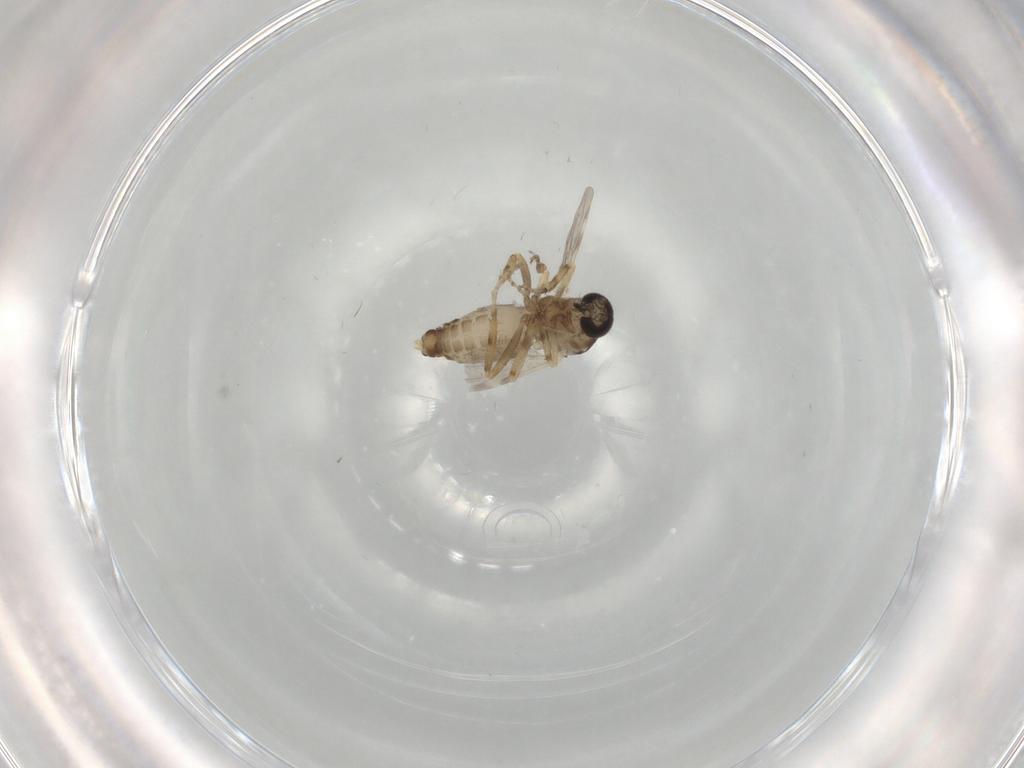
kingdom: Animalia
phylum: Arthropoda
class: Insecta
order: Diptera
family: Ceratopogonidae
